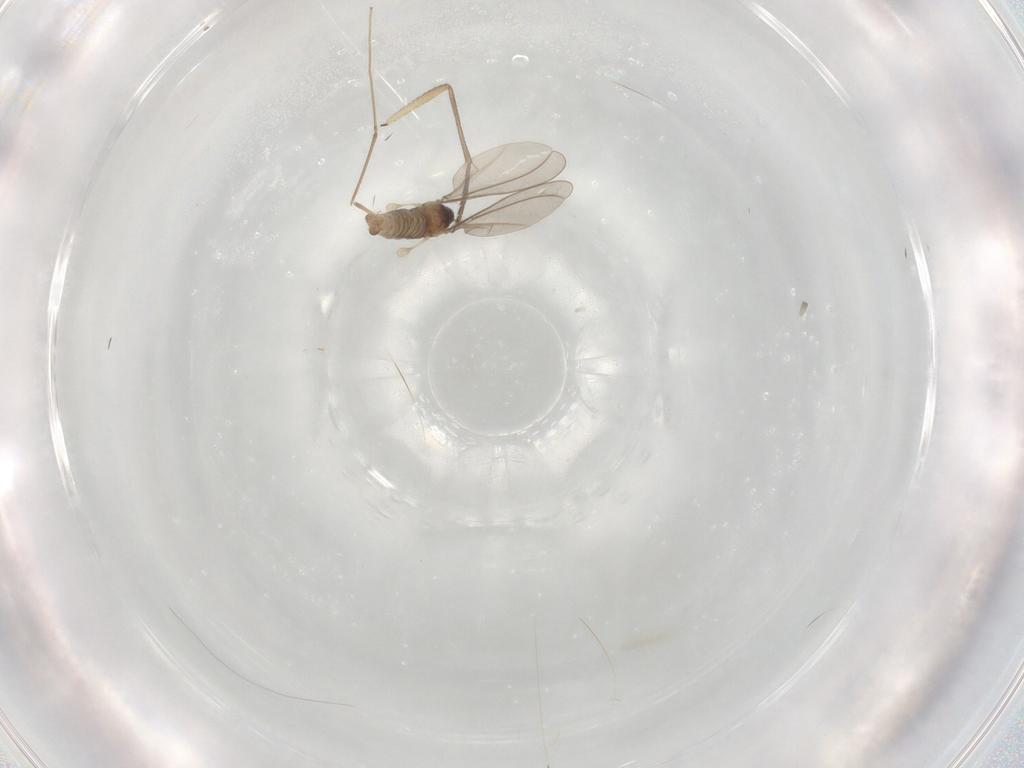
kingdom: Animalia
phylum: Arthropoda
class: Insecta
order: Diptera
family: Cecidomyiidae
